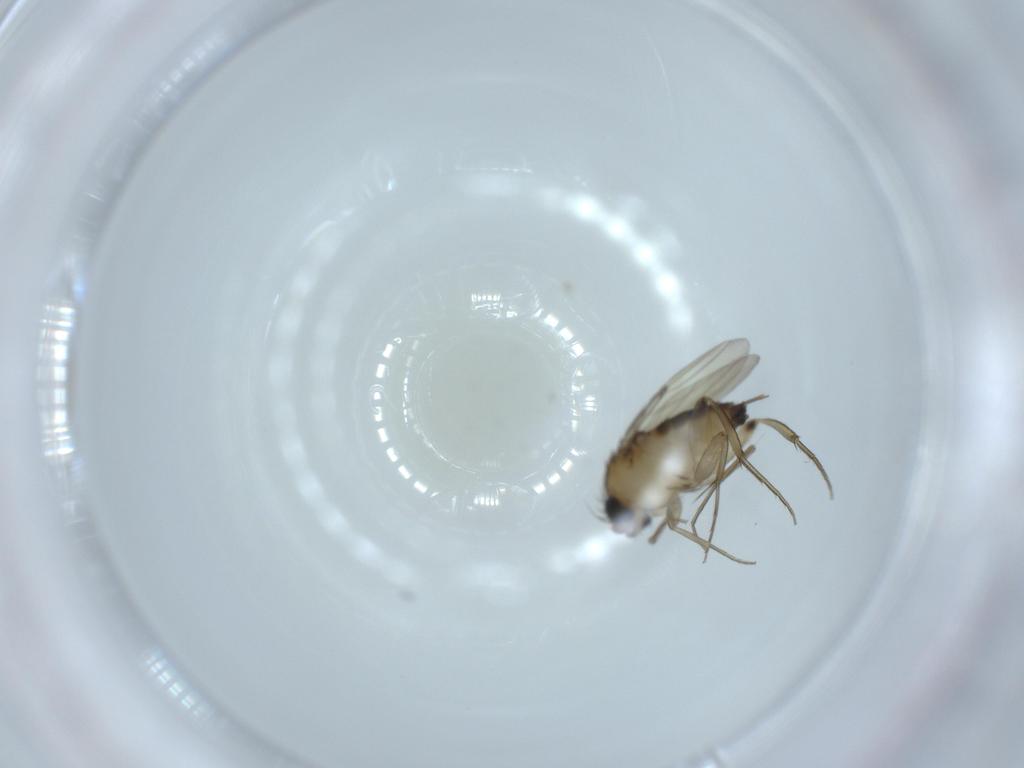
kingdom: Animalia
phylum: Arthropoda
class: Insecta
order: Diptera
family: Phoridae
